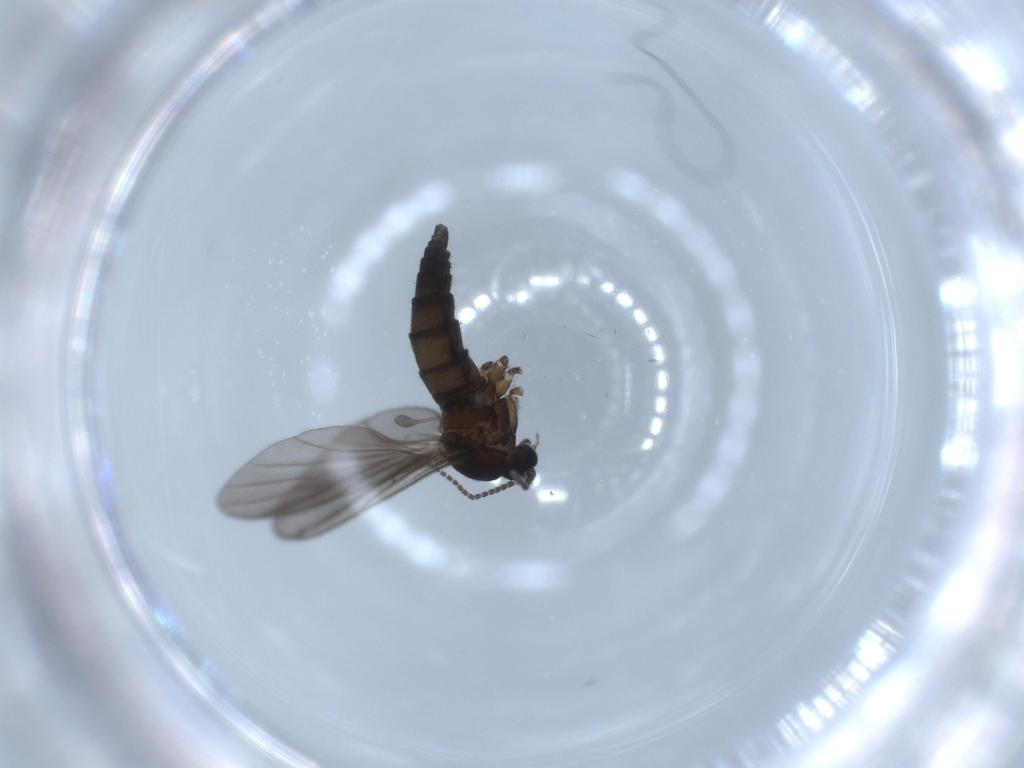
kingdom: Animalia
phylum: Arthropoda
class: Insecta
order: Diptera
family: Sciaridae
